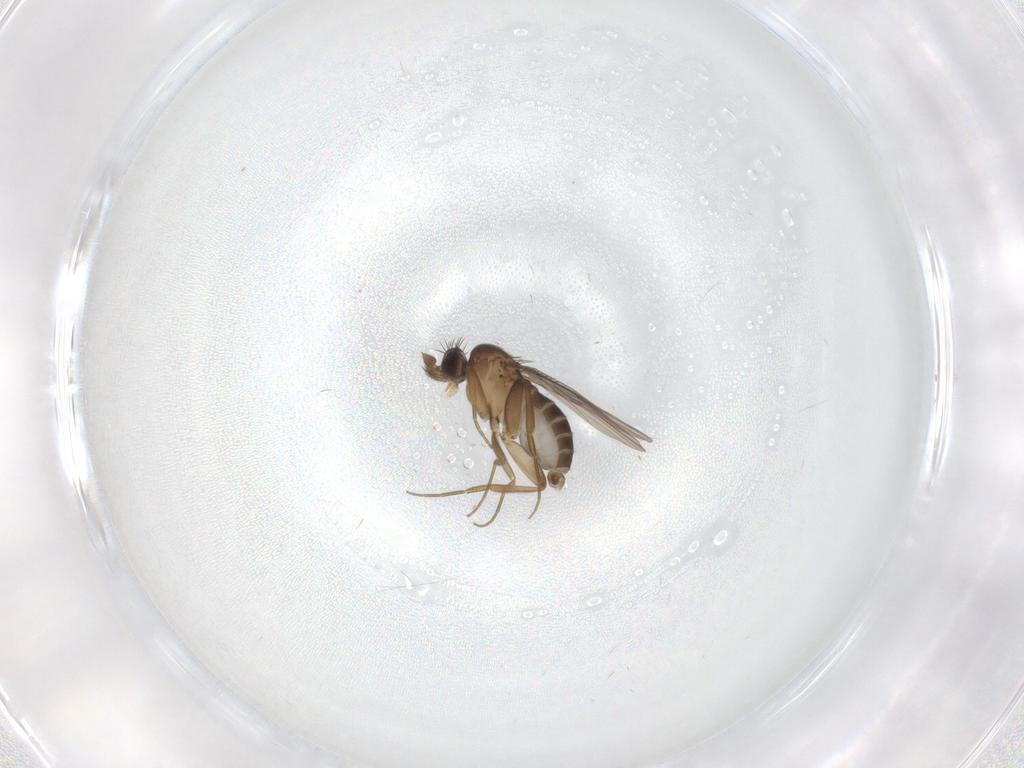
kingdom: Animalia
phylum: Arthropoda
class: Insecta
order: Diptera
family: Phoridae
